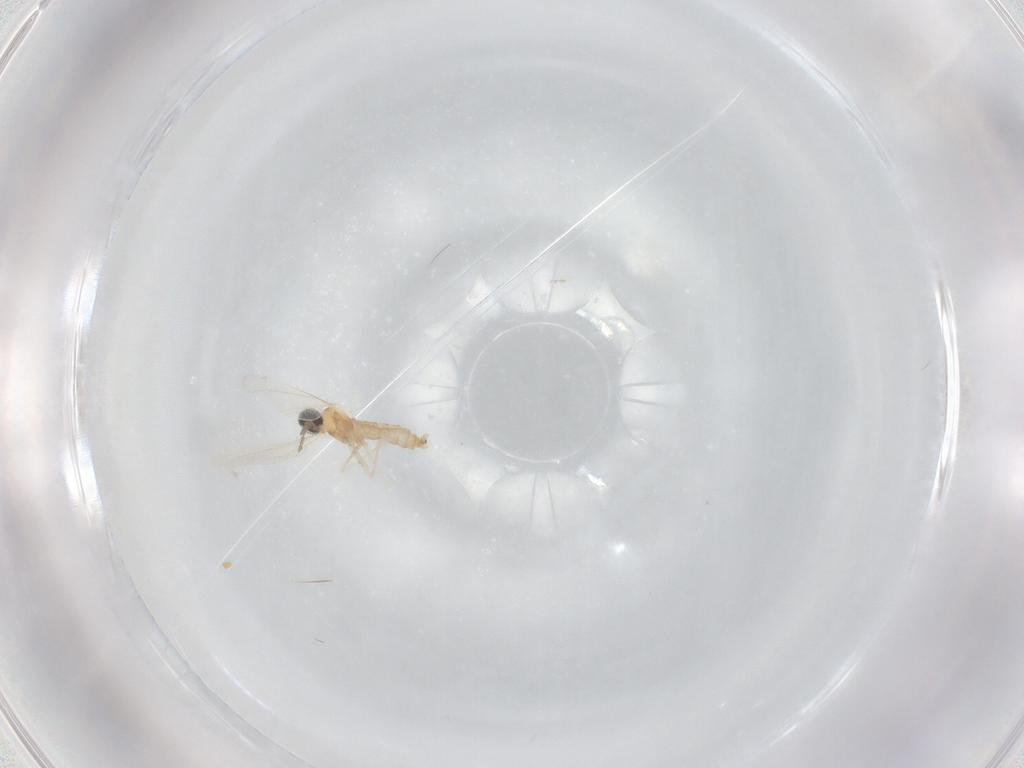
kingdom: Animalia
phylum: Arthropoda
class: Insecta
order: Diptera
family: Cecidomyiidae
